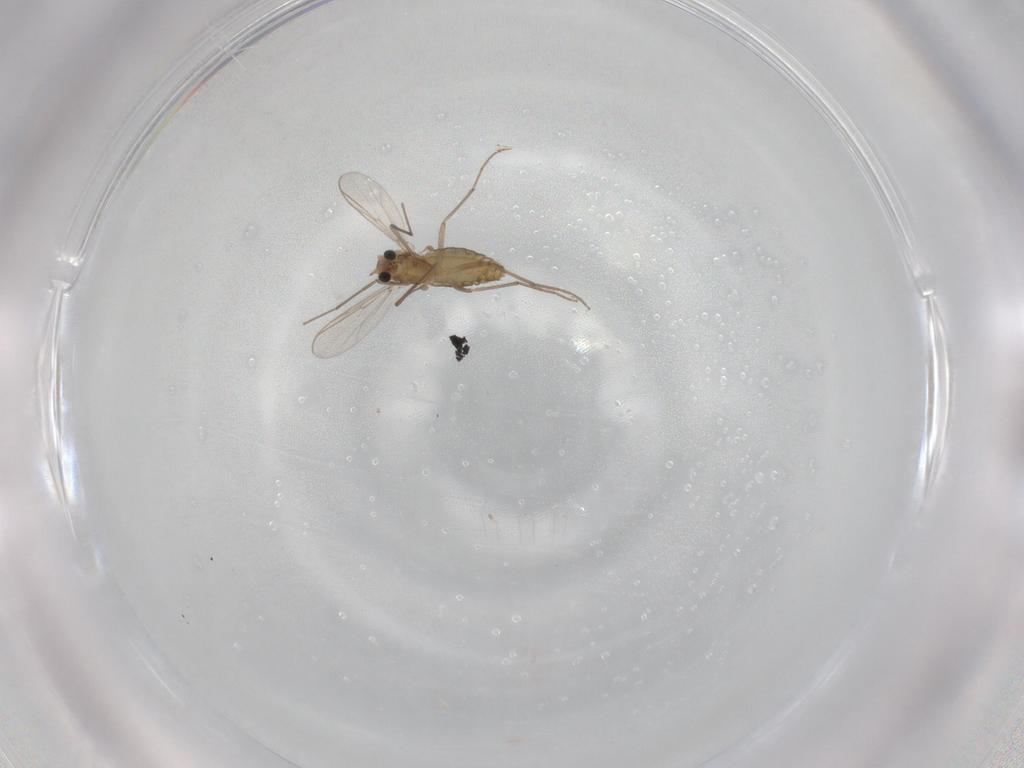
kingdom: Animalia
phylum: Arthropoda
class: Insecta
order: Diptera
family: Chironomidae
